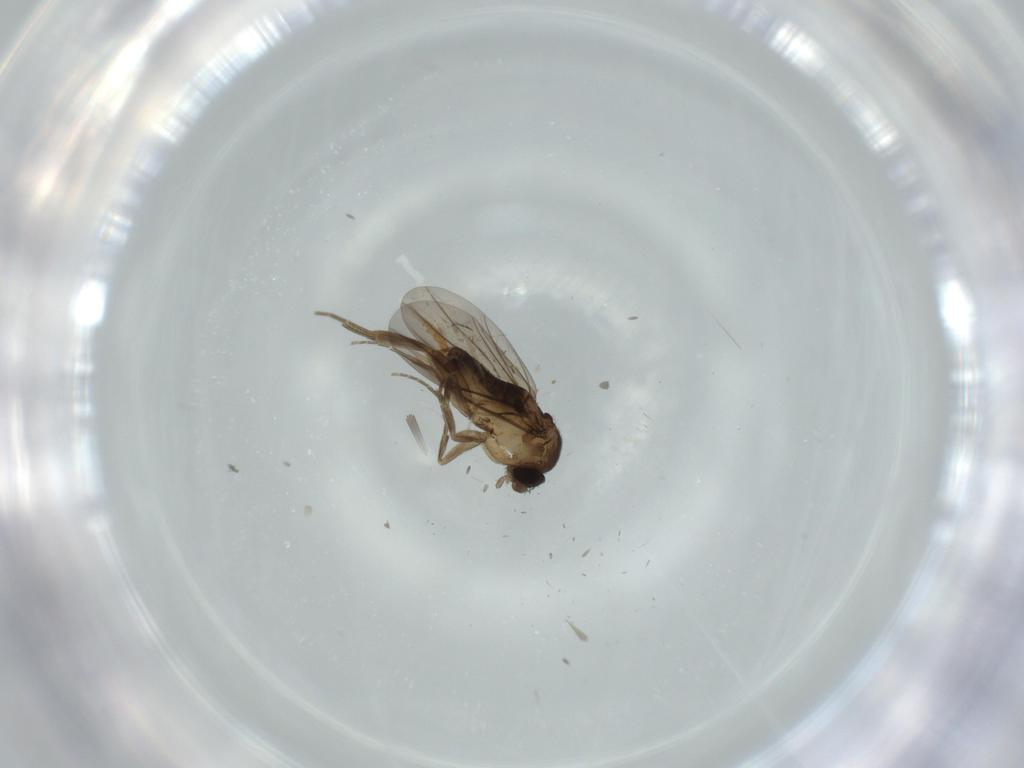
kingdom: Animalia
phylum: Arthropoda
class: Insecta
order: Diptera
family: Phoridae
